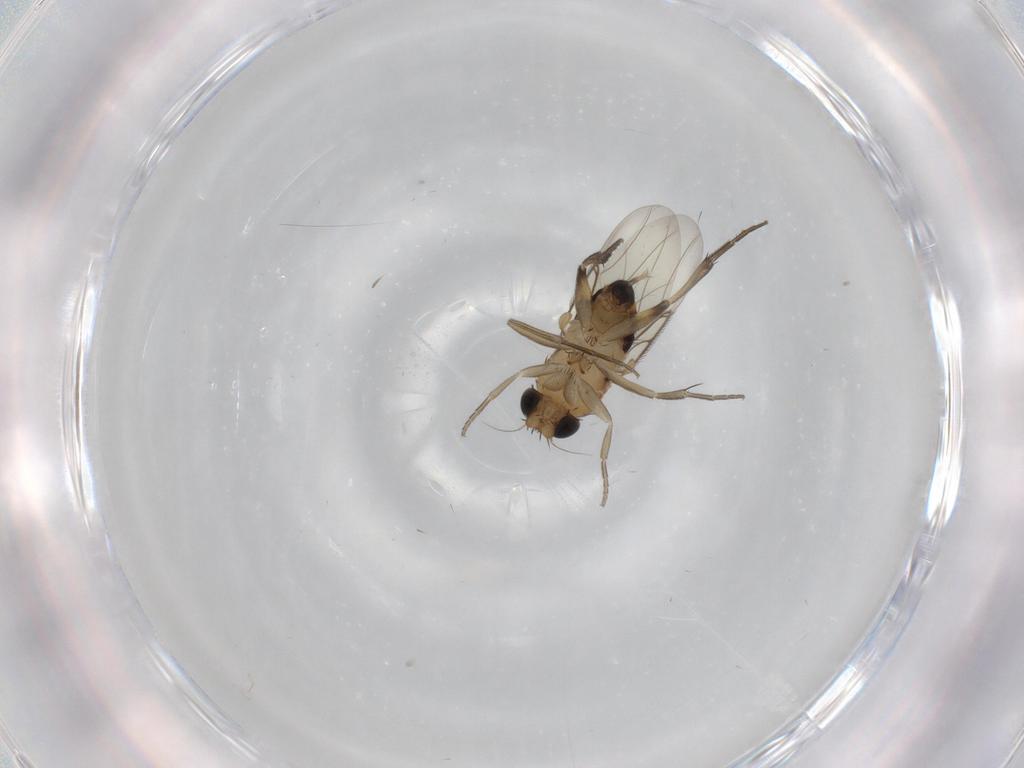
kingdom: Animalia
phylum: Arthropoda
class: Insecta
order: Diptera
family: Phoridae
